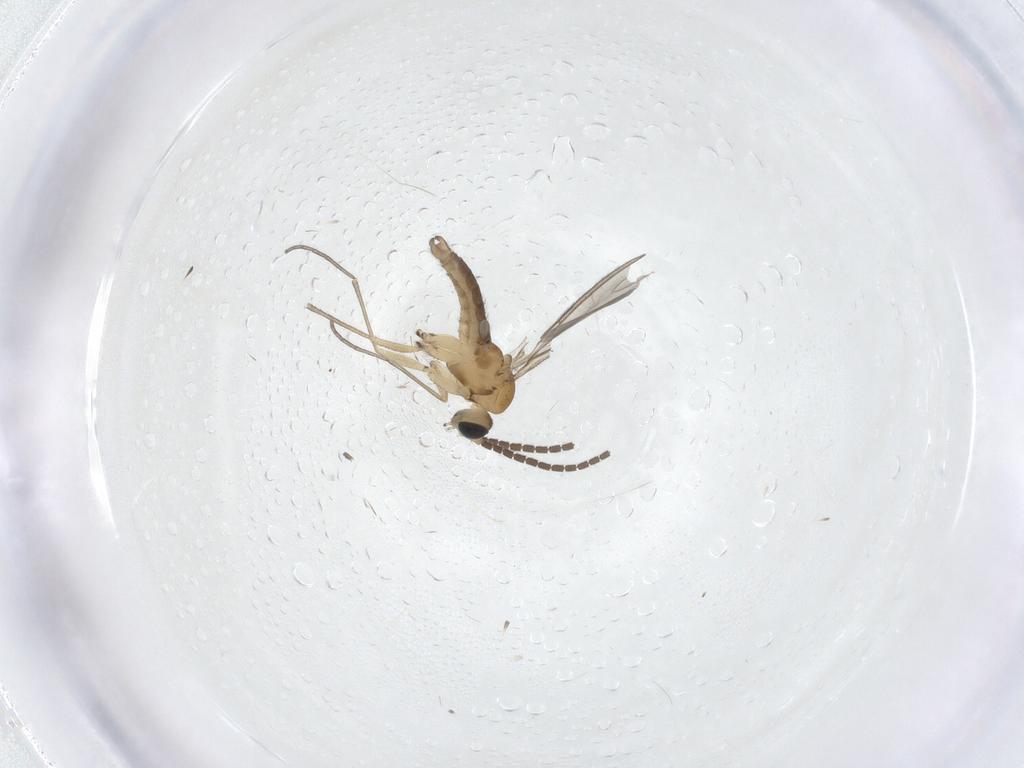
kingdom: Animalia
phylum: Arthropoda
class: Insecta
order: Diptera
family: Sciaridae
